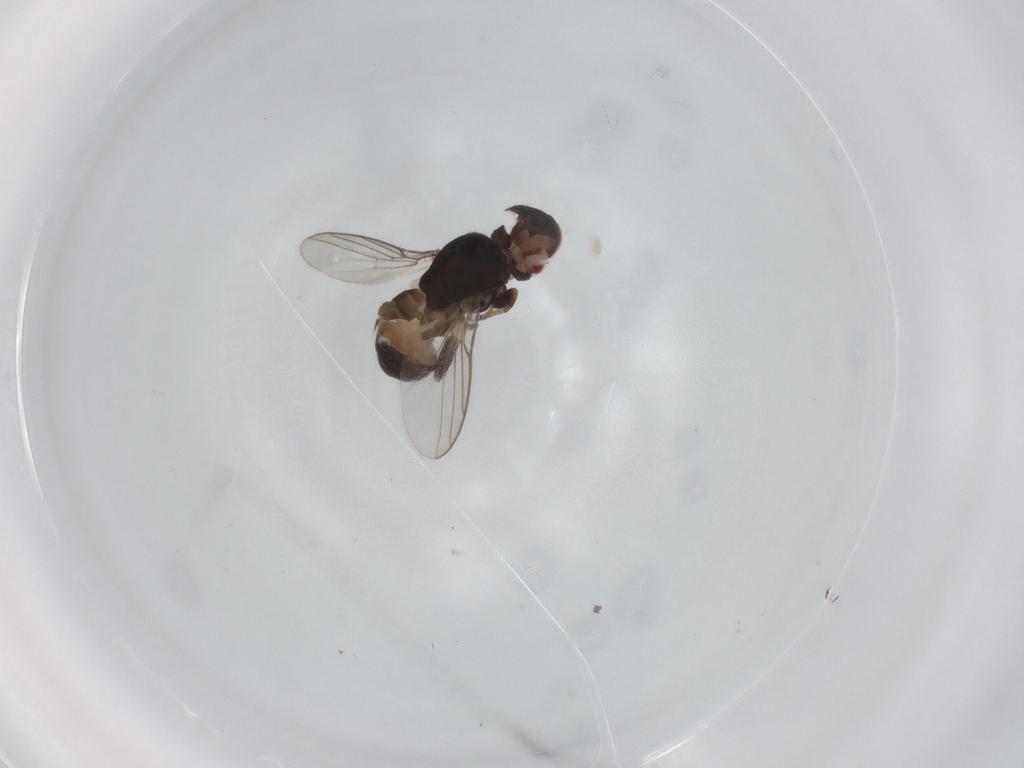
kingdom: Animalia
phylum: Arthropoda
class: Insecta
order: Diptera
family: Chloropidae
